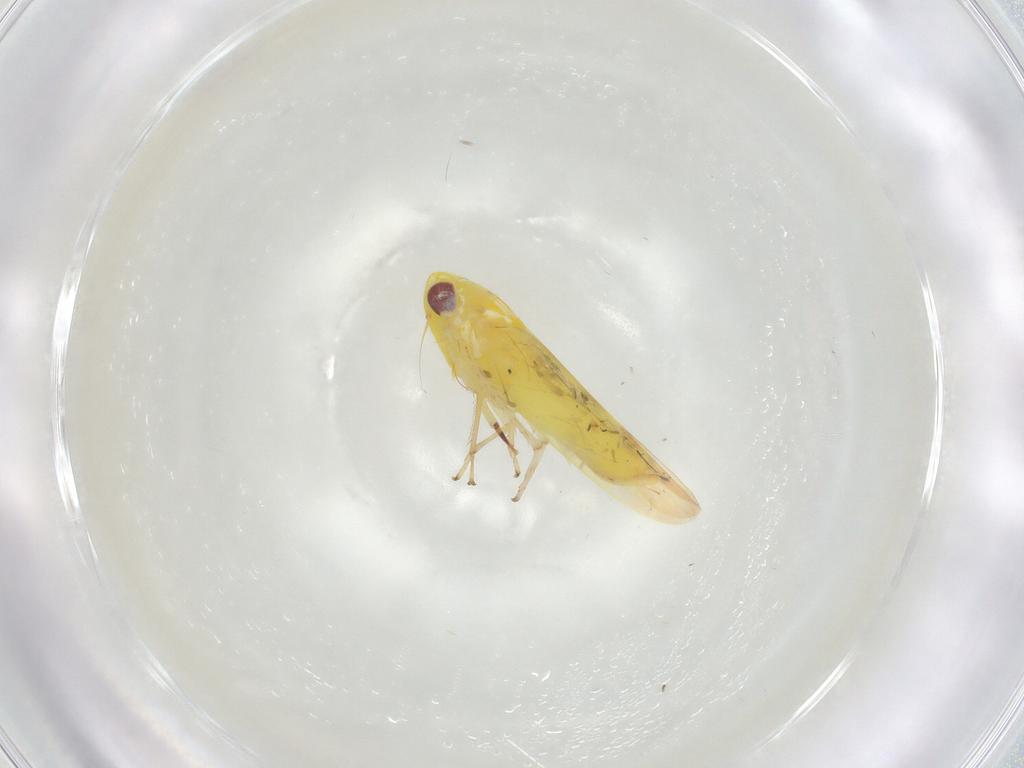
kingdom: Animalia
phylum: Arthropoda
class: Insecta
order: Hemiptera
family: Cicadellidae
